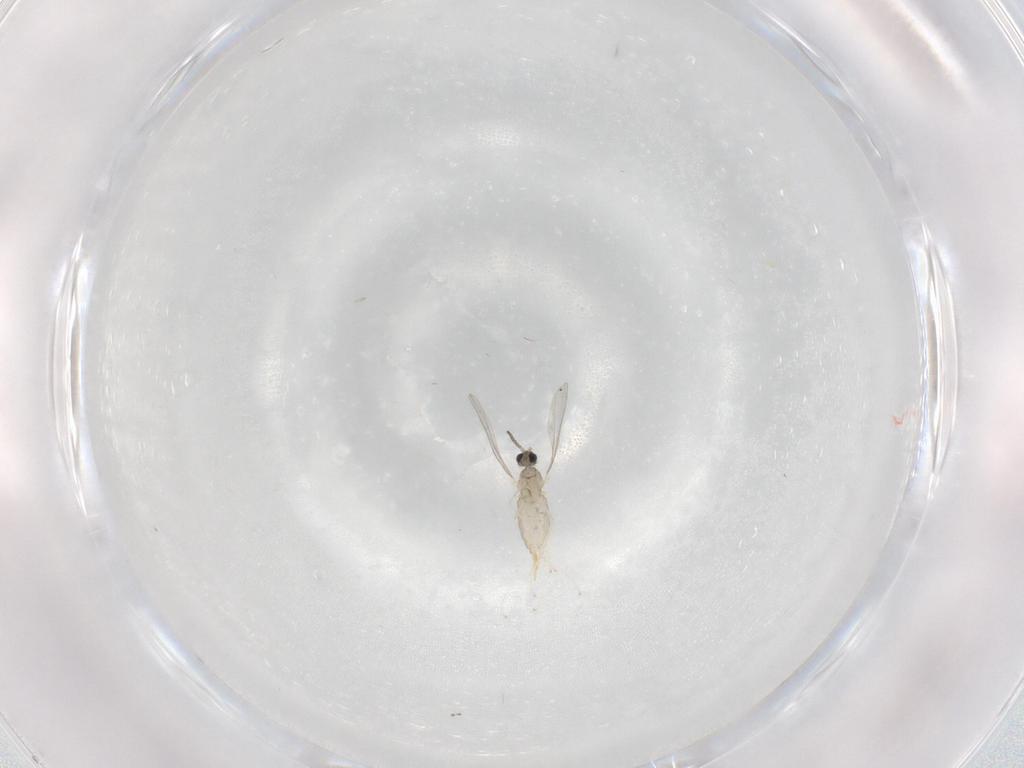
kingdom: Animalia
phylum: Arthropoda
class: Insecta
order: Diptera
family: Cecidomyiidae
